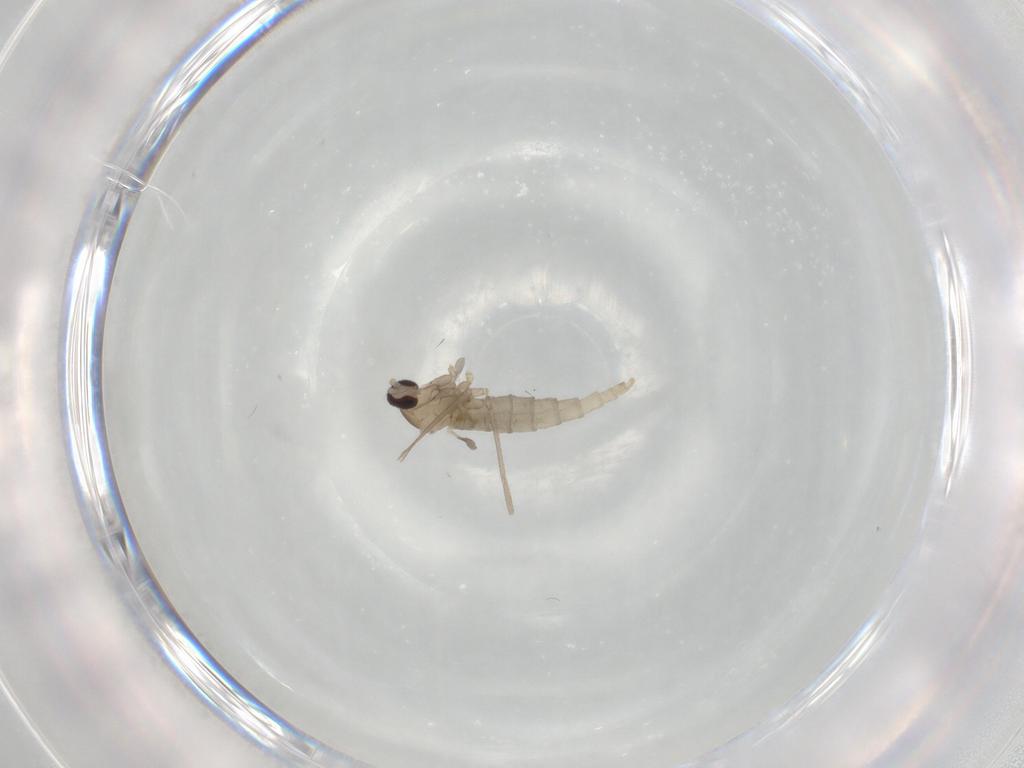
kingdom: Animalia
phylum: Arthropoda
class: Insecta
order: Diptera
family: Cecidomyiidae
